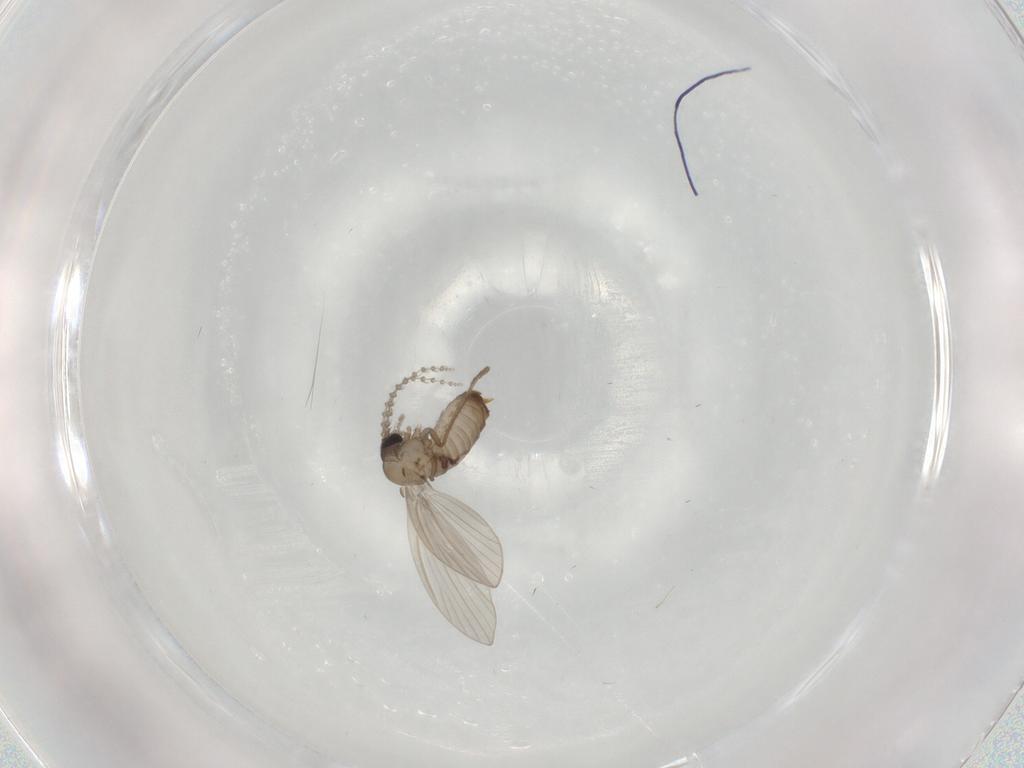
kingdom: Animalia
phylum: Arthropoda
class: Insecta
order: Diptera
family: Psychodidae
